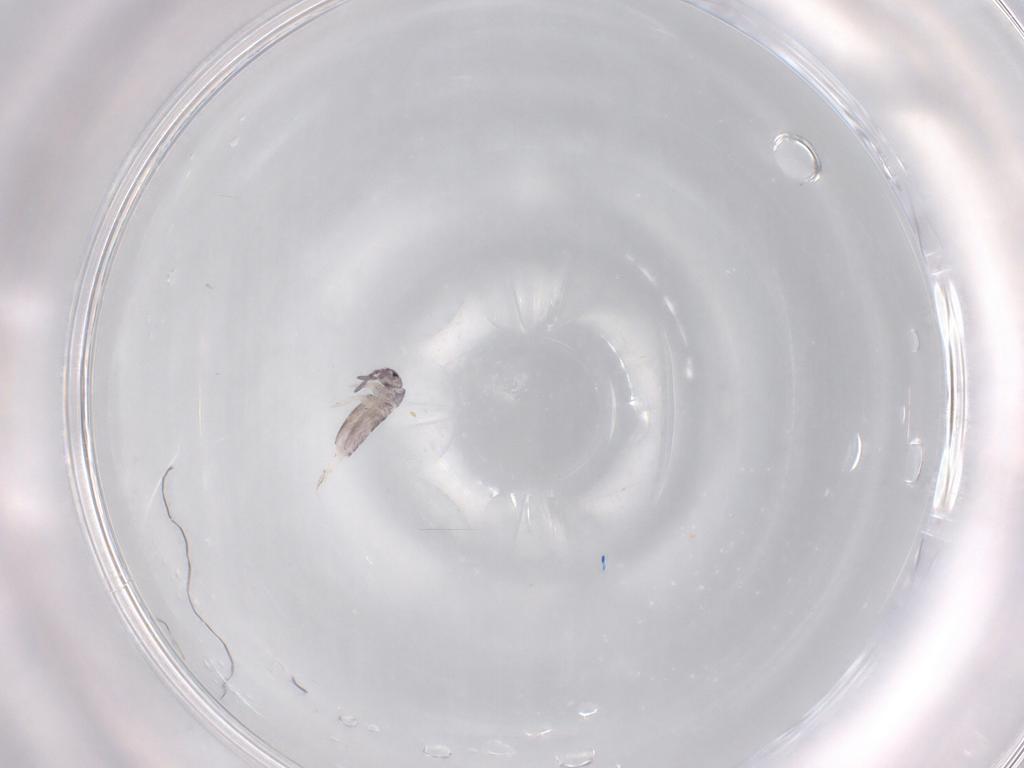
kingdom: Animalia
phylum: Arthropoda
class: Collembola
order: Entomobryomorpha
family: Entomobryidae
